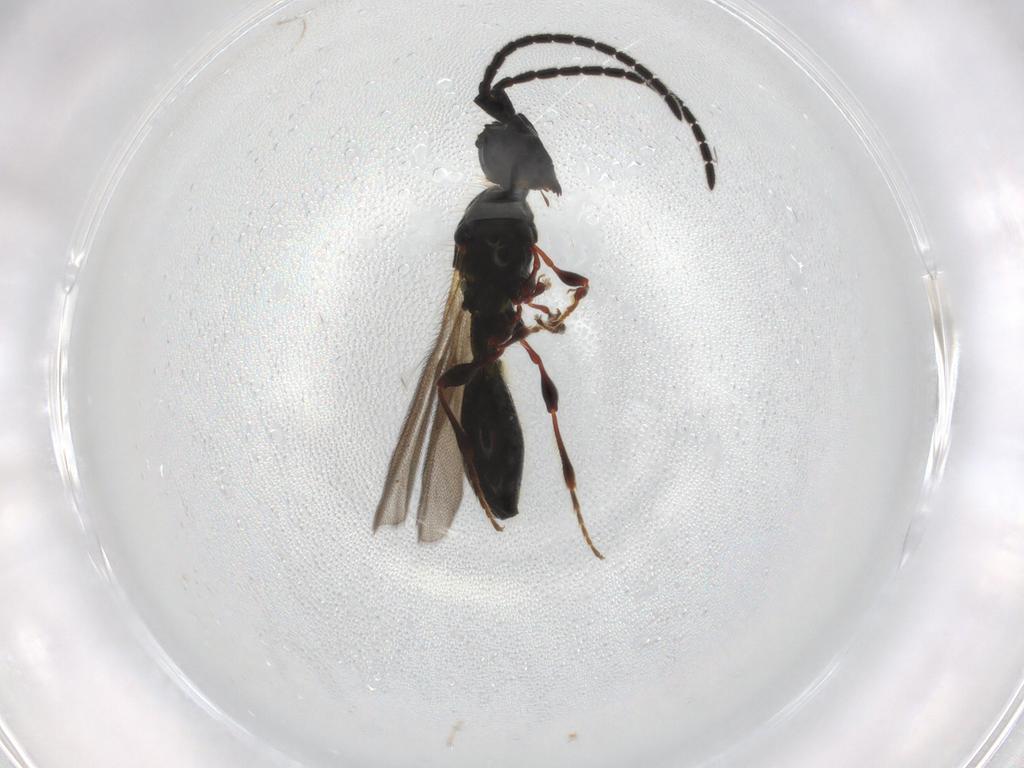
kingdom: Animalia
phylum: Arthropoda
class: Insecta
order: Hymenoptera
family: Diapriidae
